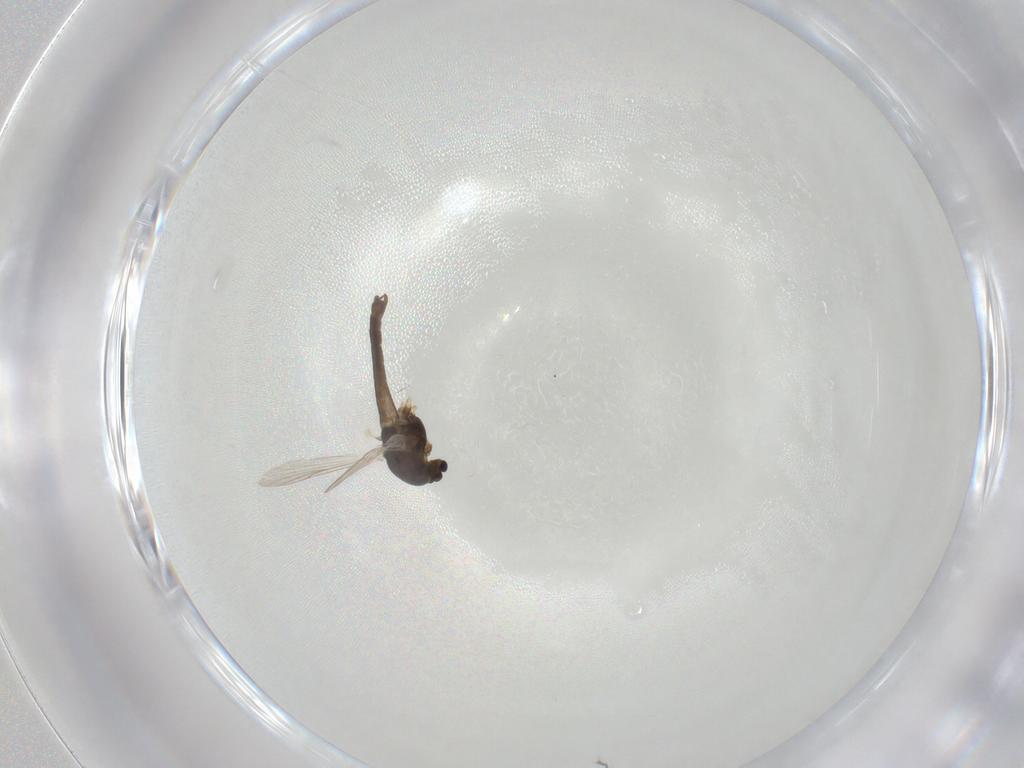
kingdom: Animalia
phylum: Arthropoda
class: Insecta
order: Diptera
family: Chironomidae
